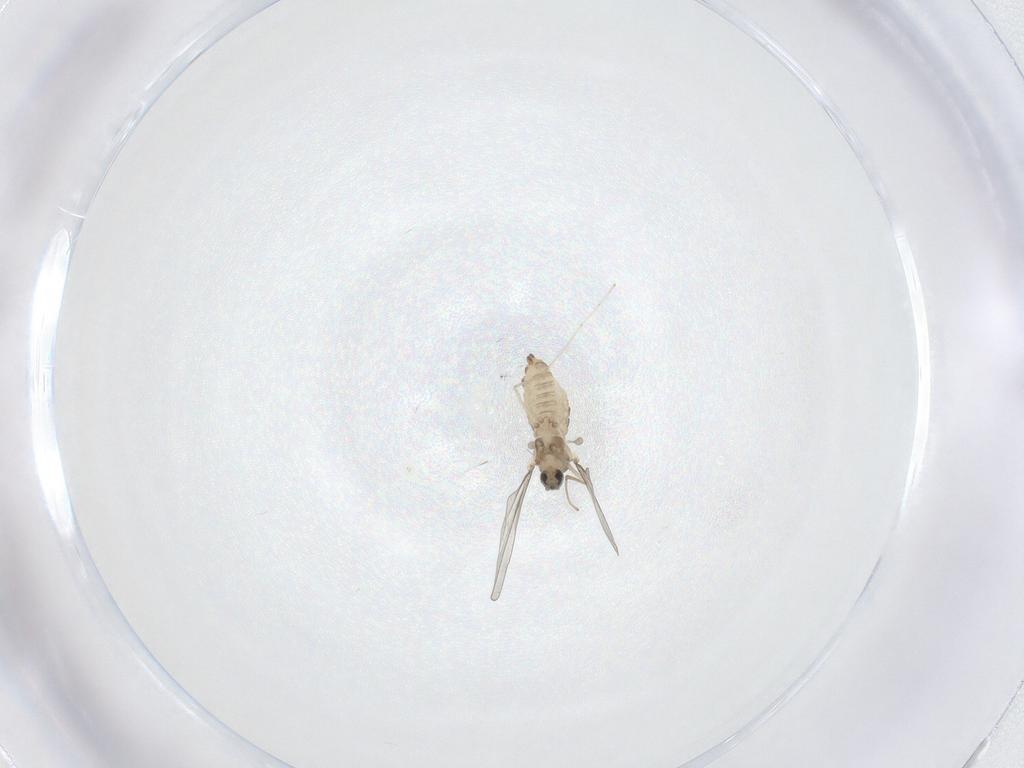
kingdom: Animalia
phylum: Arthropoda
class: Insecta
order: Diptera
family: Cecidomyiidae
